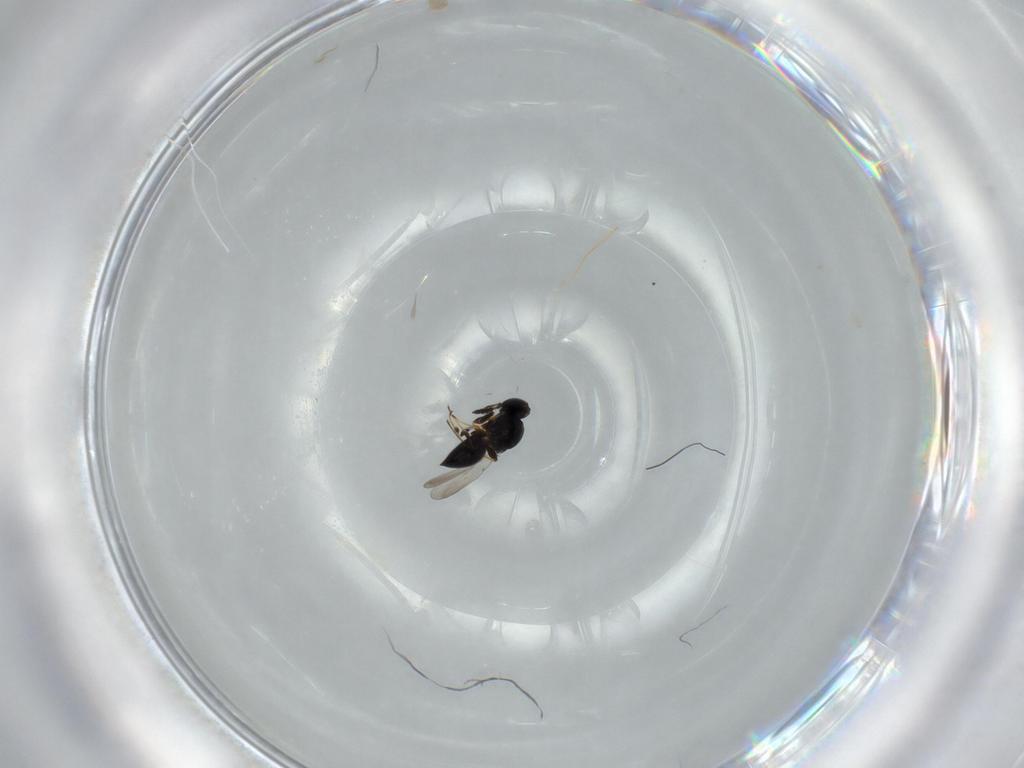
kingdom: Animalia
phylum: Arthropoda
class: Insecta
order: Hymenoptera
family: Platygastridae
